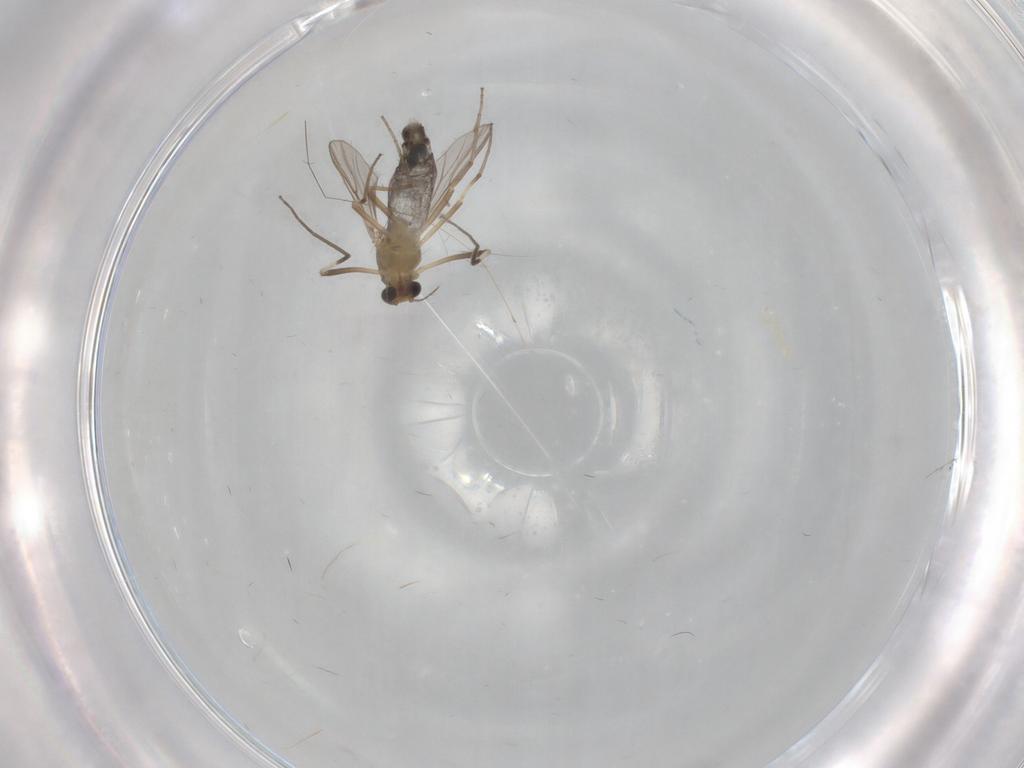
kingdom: Animalia
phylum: Arthropoda
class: Insecta
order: Diptera
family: Chironomidae
